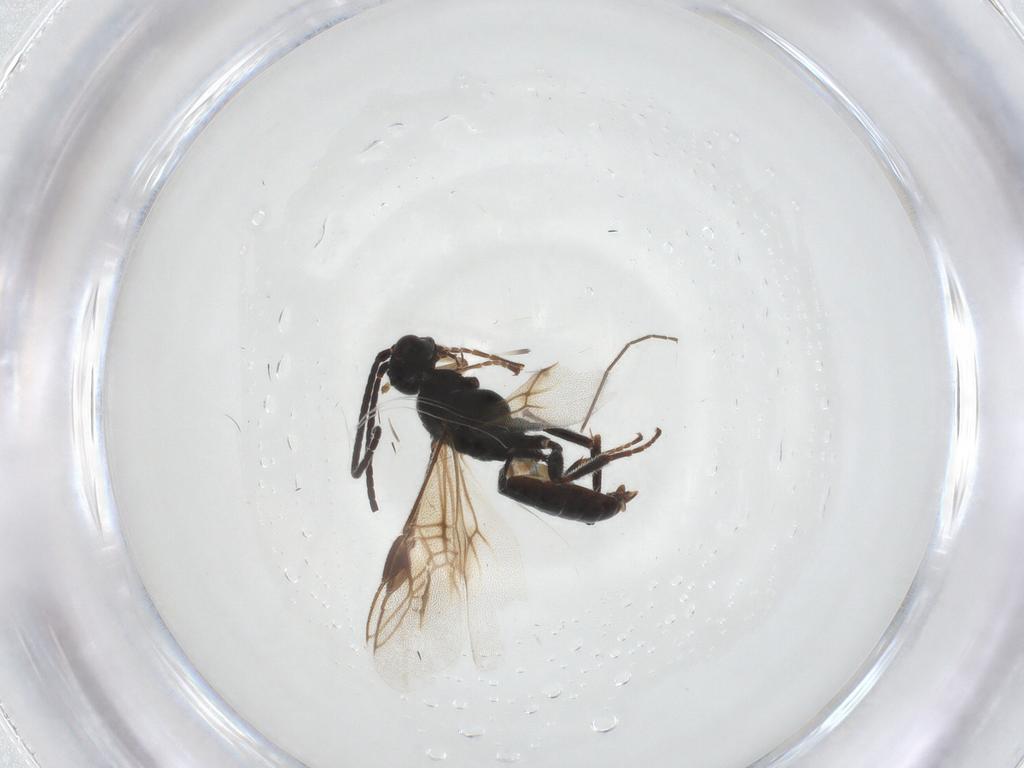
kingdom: Animalia
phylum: Arthropoda
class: Insecta
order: Hymenoptera
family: Braconidae
